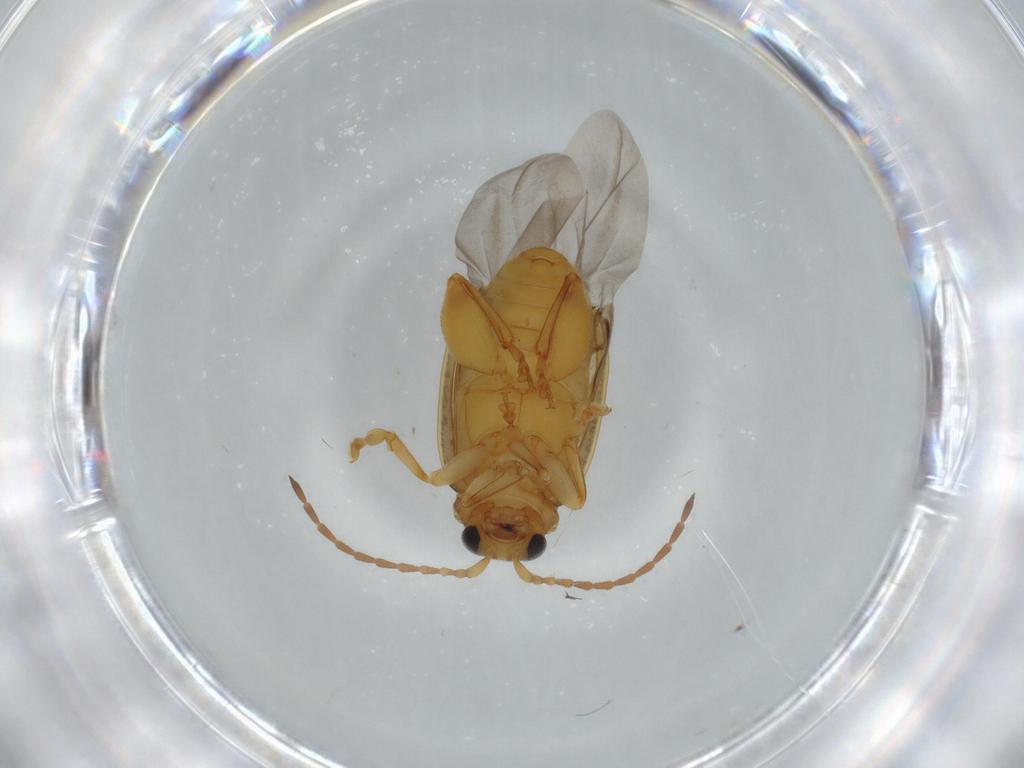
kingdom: Animalia
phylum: Arthropoda
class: Insecta
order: Coleoptera
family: Chrysomelidae
